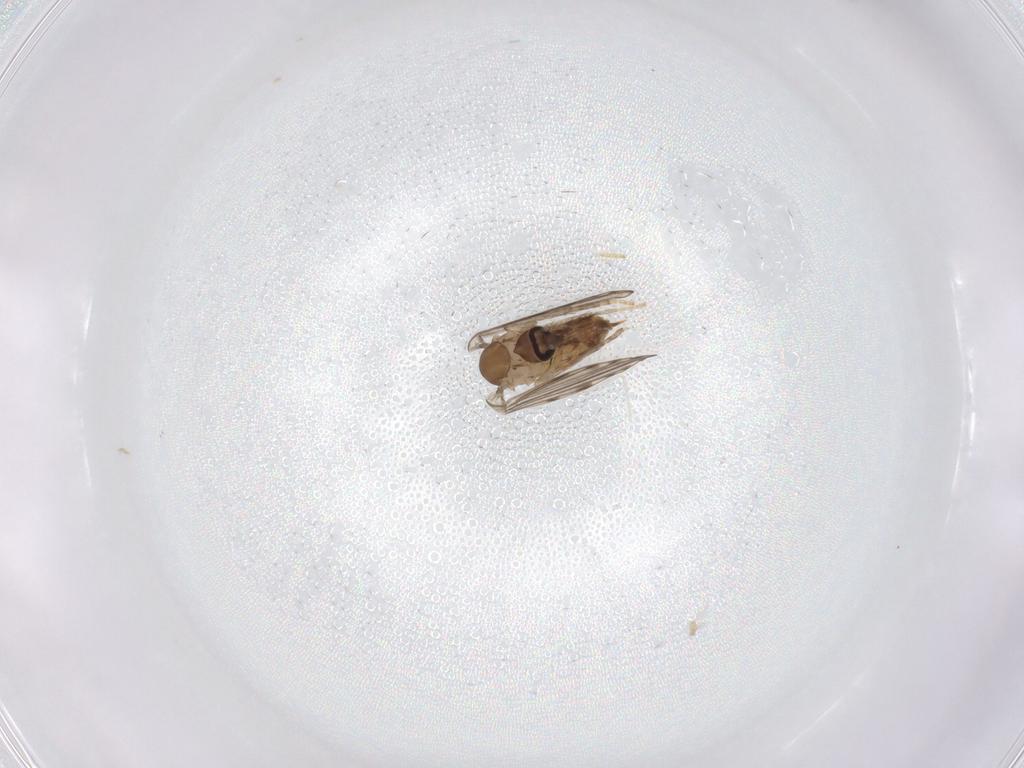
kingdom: Animalia
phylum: Arthropoda
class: Insecta
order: Diptera
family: Psychodidae
